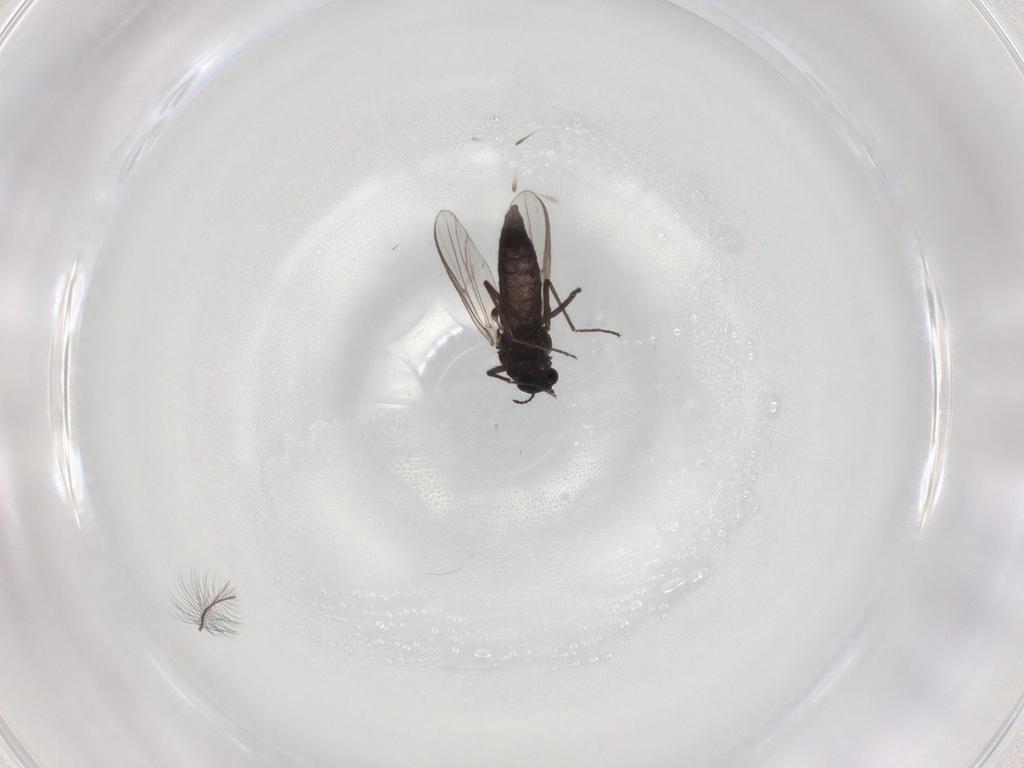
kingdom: Animalia
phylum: Arthropoda
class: Insecta
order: Diptera
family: Chironomidae
